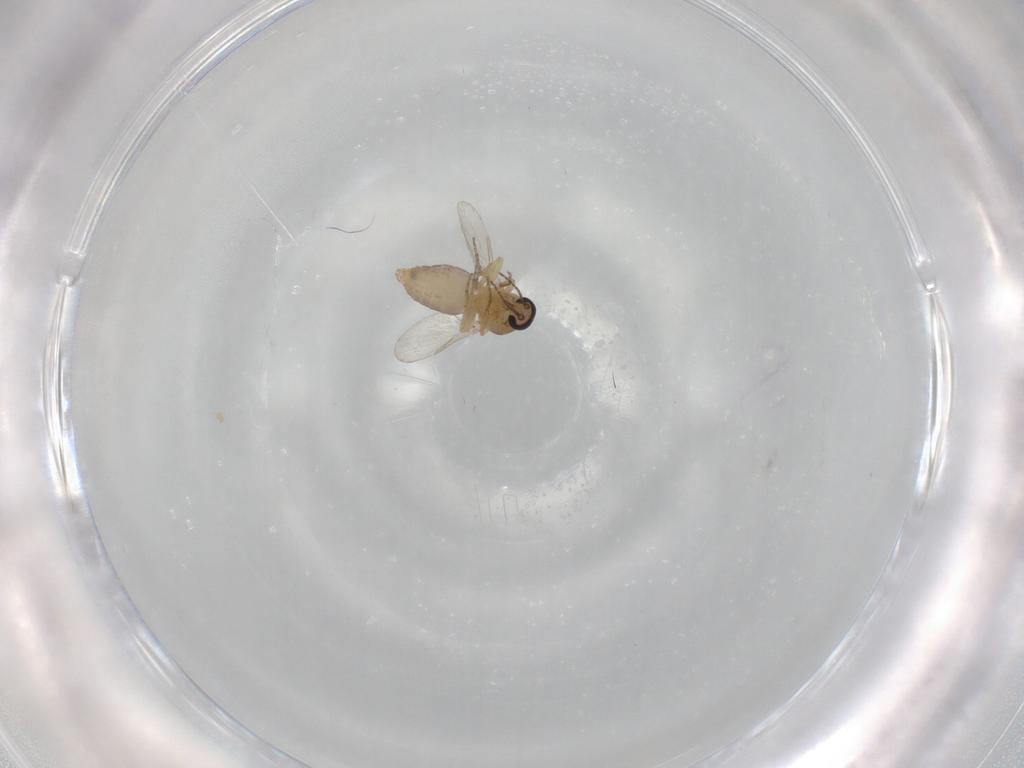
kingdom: Animalia
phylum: Arthropoda
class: Insecta
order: Diptera
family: Ceratopogonidae
